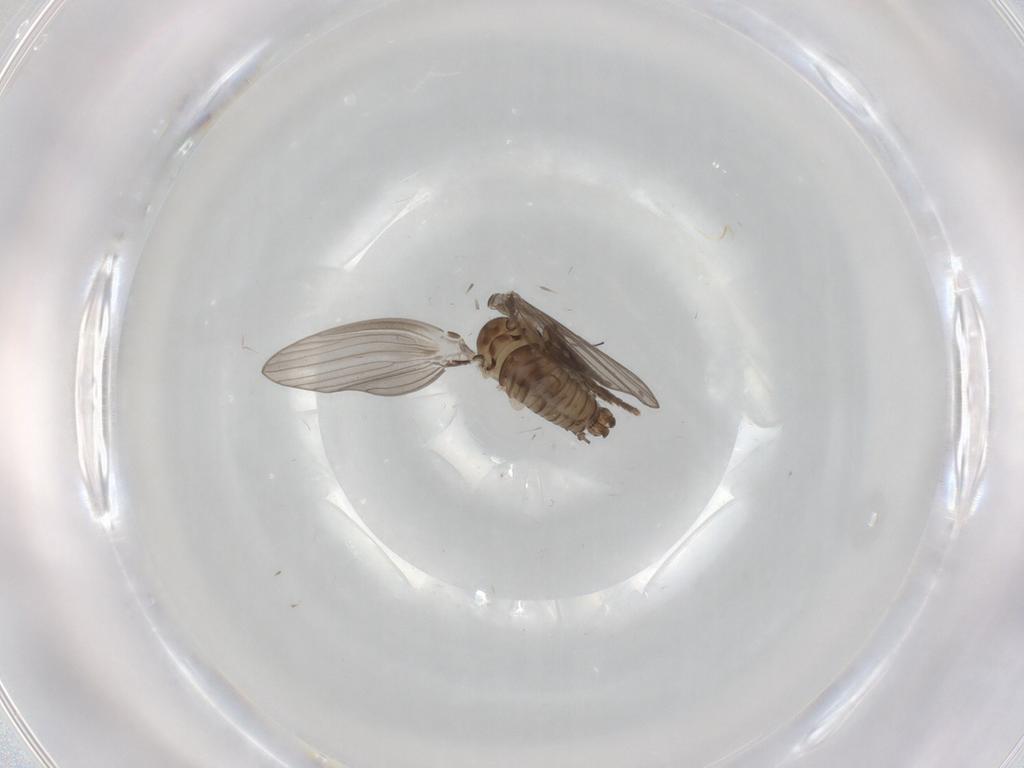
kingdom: Animalia
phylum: Arthropoda
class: Insecta
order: Diptera
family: Psychodidae
